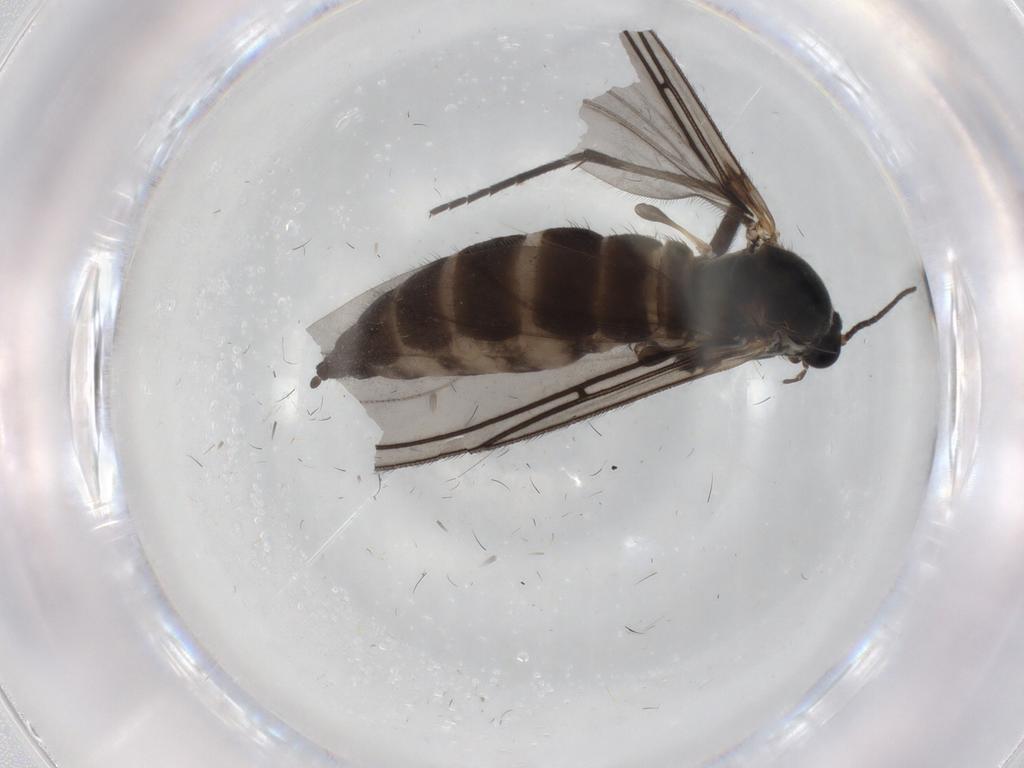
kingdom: Animalia
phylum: Arthropoda
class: Insecta
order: Diptera
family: Sciaridae
